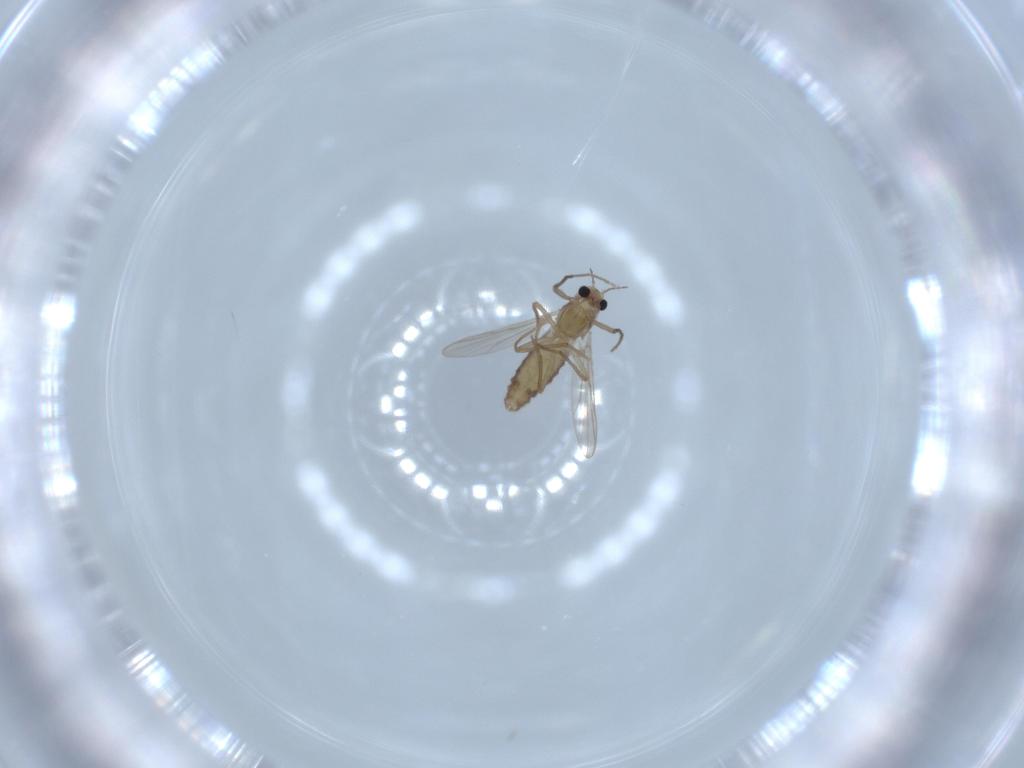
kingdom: Animalia
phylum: Arthropoda
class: Insecta
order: Diptera
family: Chironomidae
